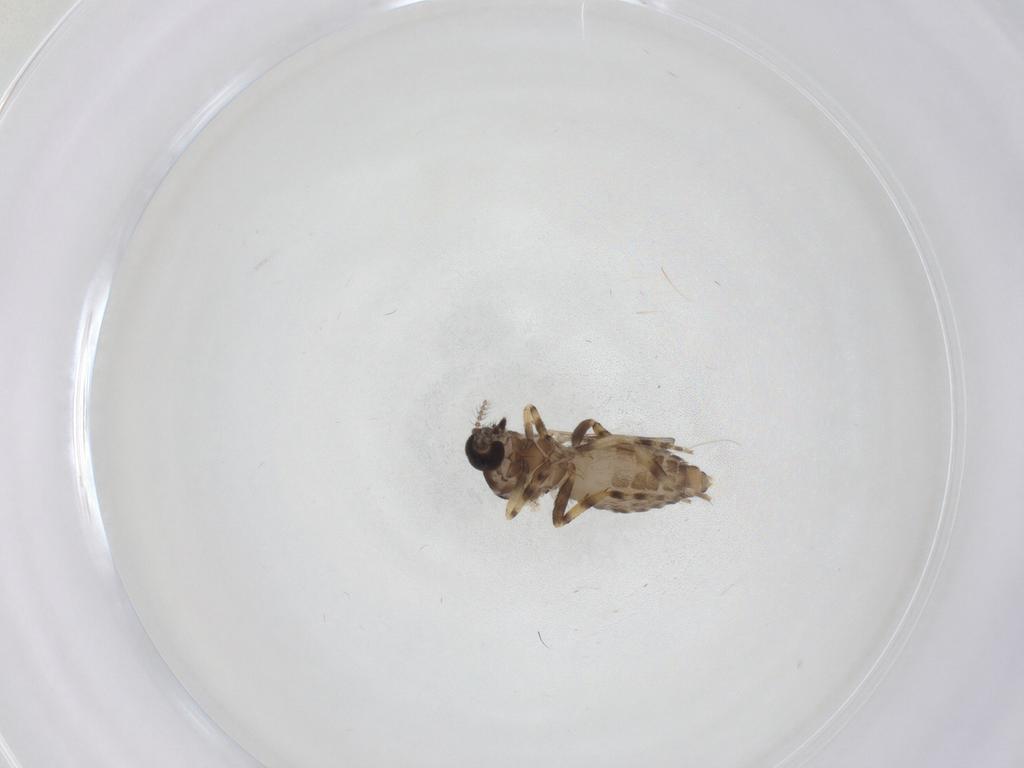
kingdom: Animalia
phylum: Arthropoda
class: Insecta
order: Diptera
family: Ceratopogonidae
